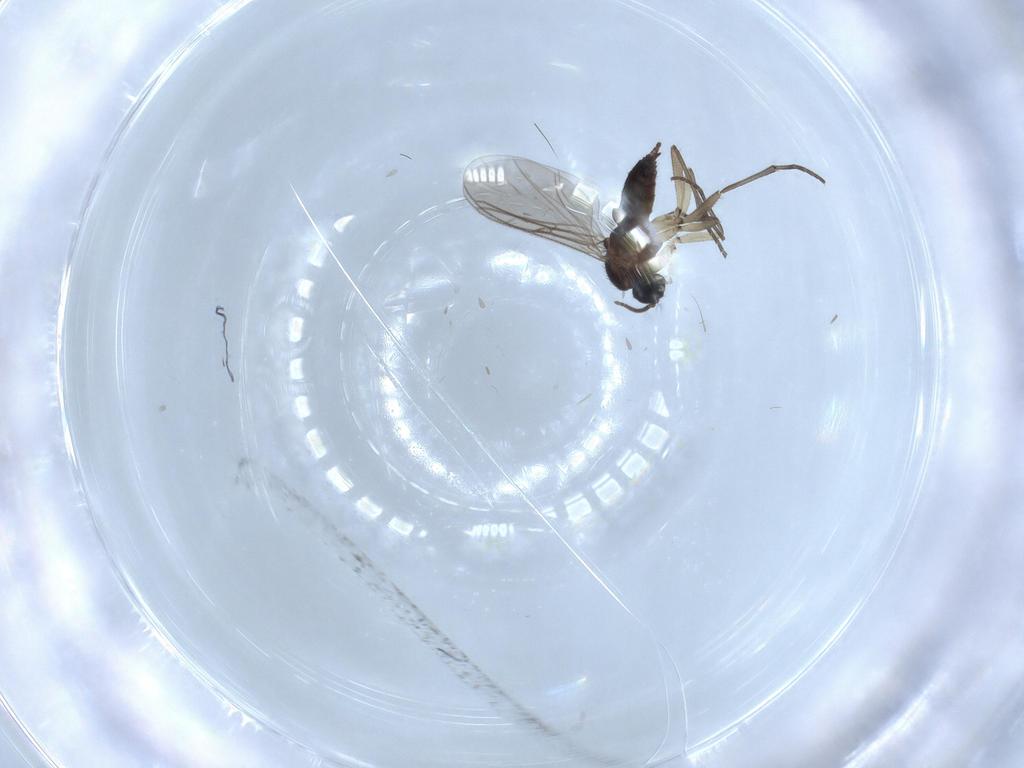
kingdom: Animalia
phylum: Arthropoda
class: Insecta
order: Diptera
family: Sciaridae
